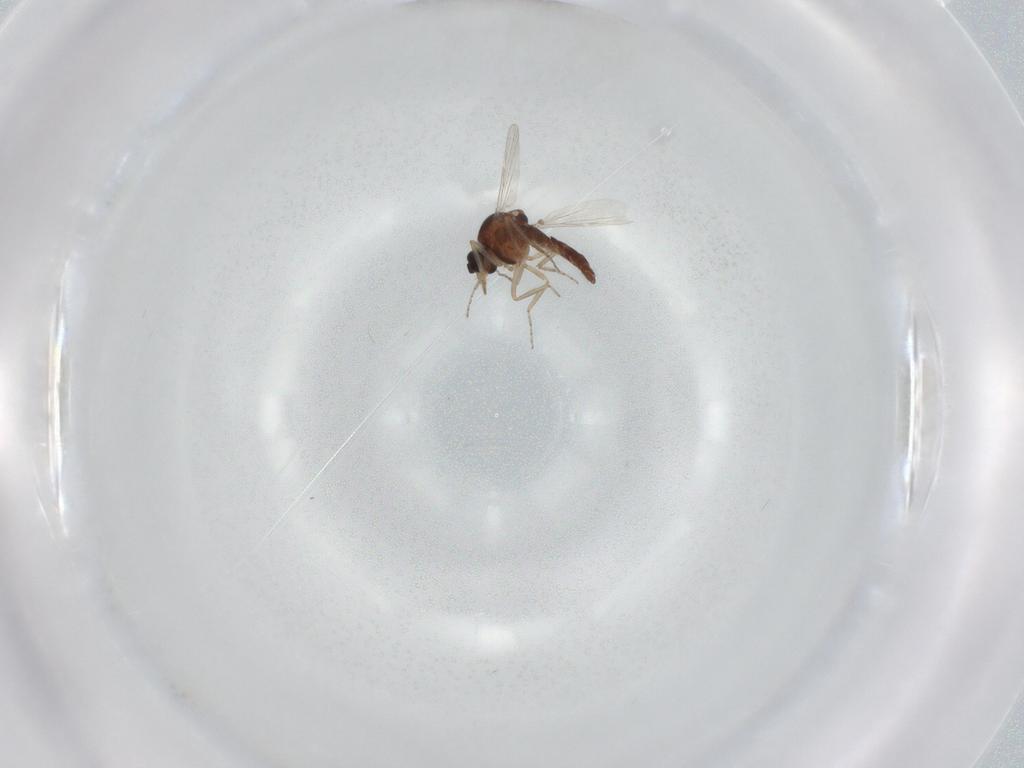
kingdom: Animalia
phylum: Arthropoda
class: Insecta
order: Diptera
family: Ceratopogonidae
